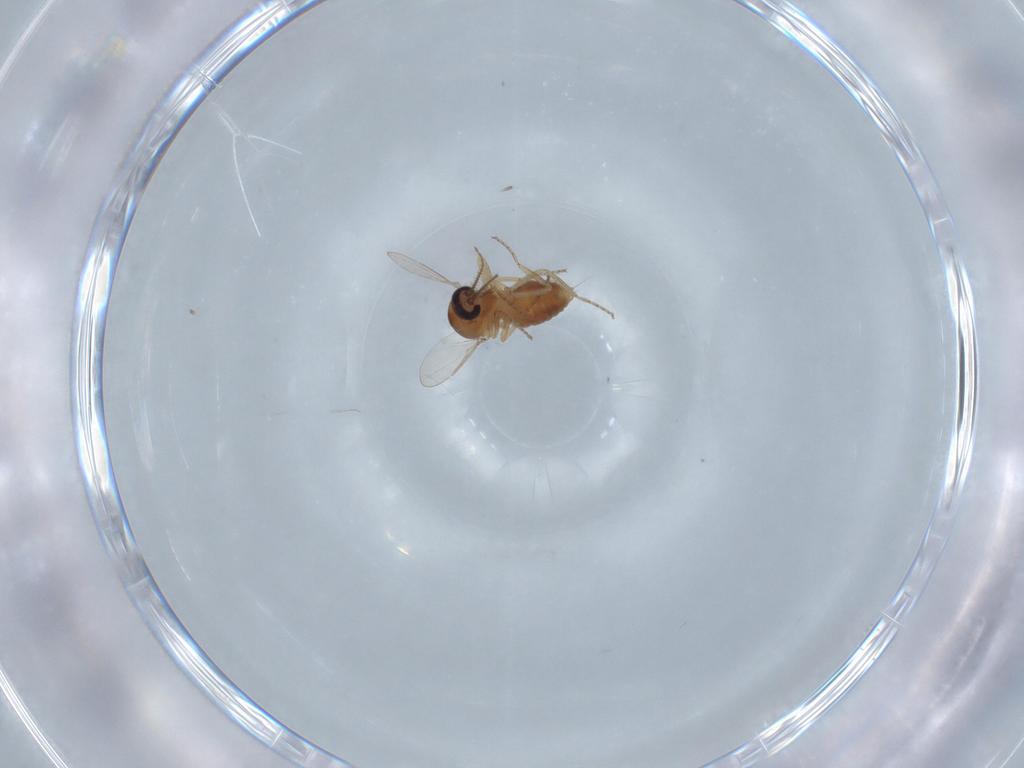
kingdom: Animalia
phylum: Arthropoda
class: Insecta
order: Diptera
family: Ceratopogonidae
